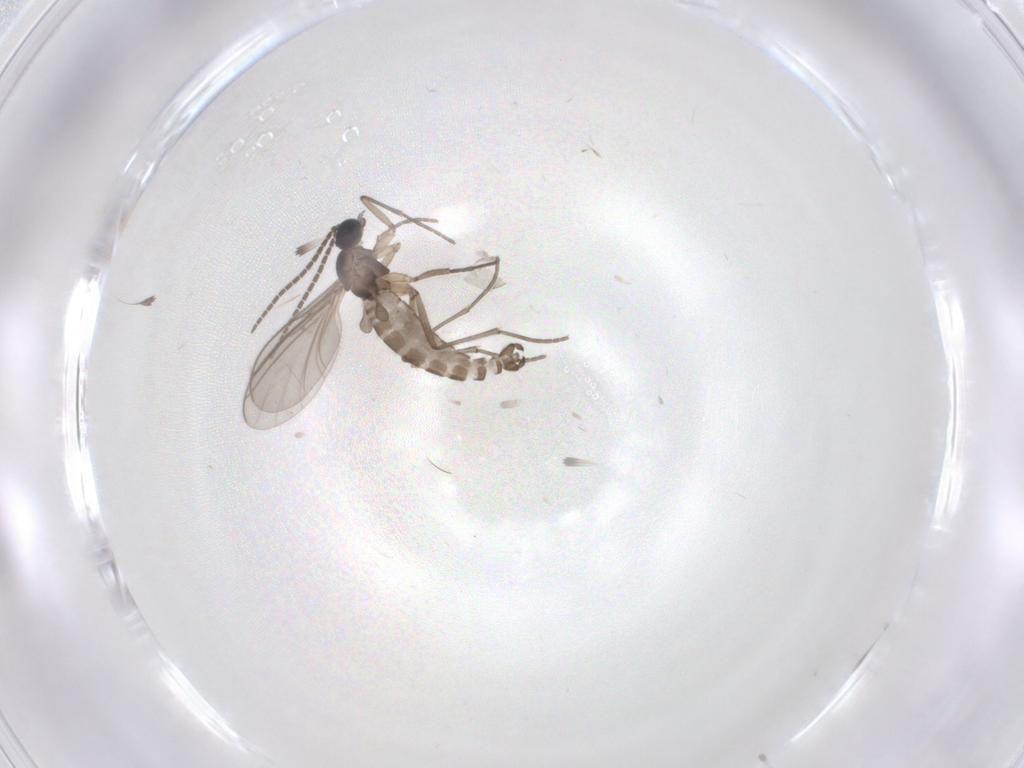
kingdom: Animalia
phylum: Arthropoda
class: Insecta
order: Diptera
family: Bibionidae
